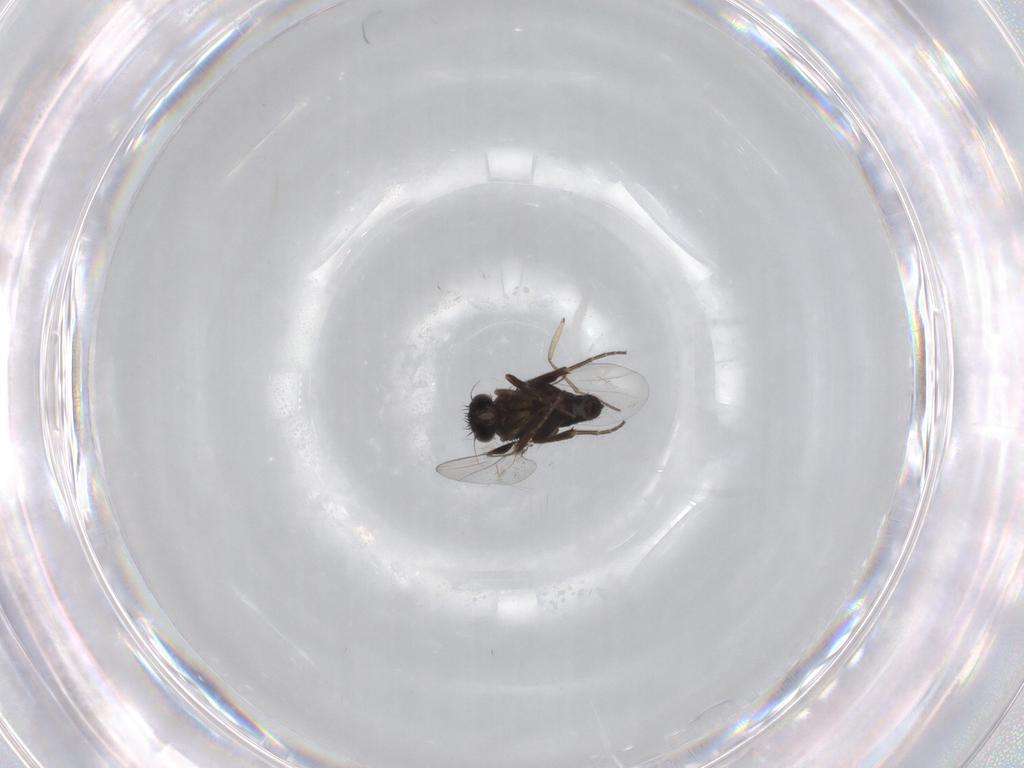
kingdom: Animalia
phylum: Arthropoda
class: Insecta
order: Diptera
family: Phoridae
